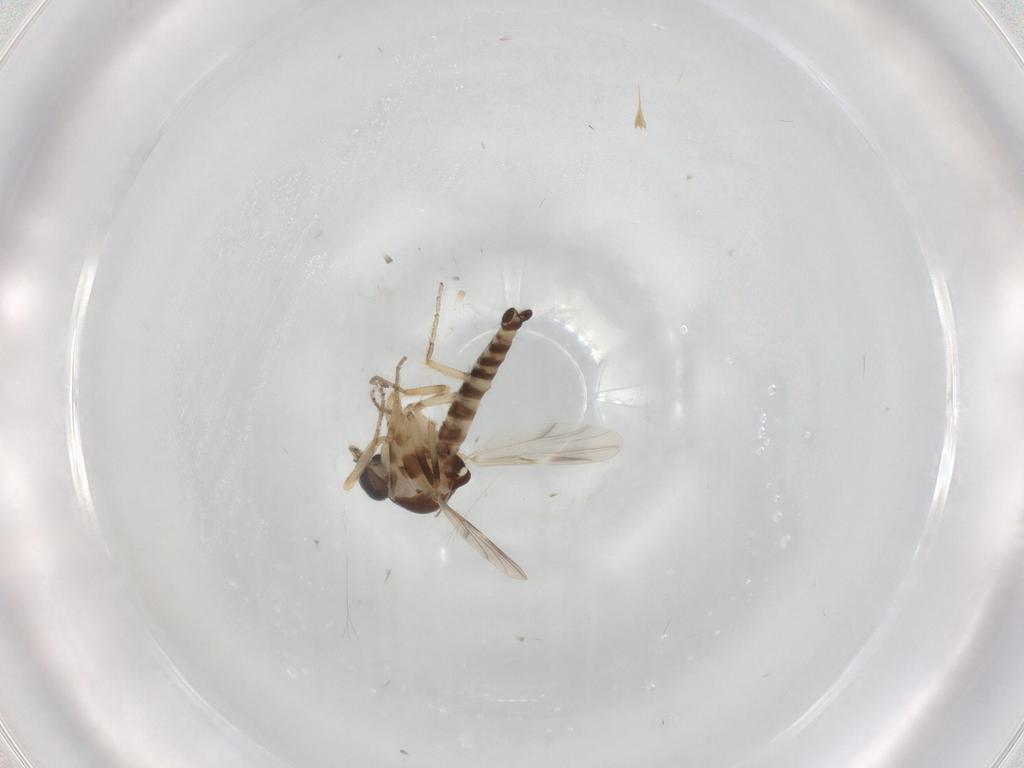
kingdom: Animalia
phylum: Arthropoda
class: Insecta
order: Diptera
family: Ceratopogonidae
